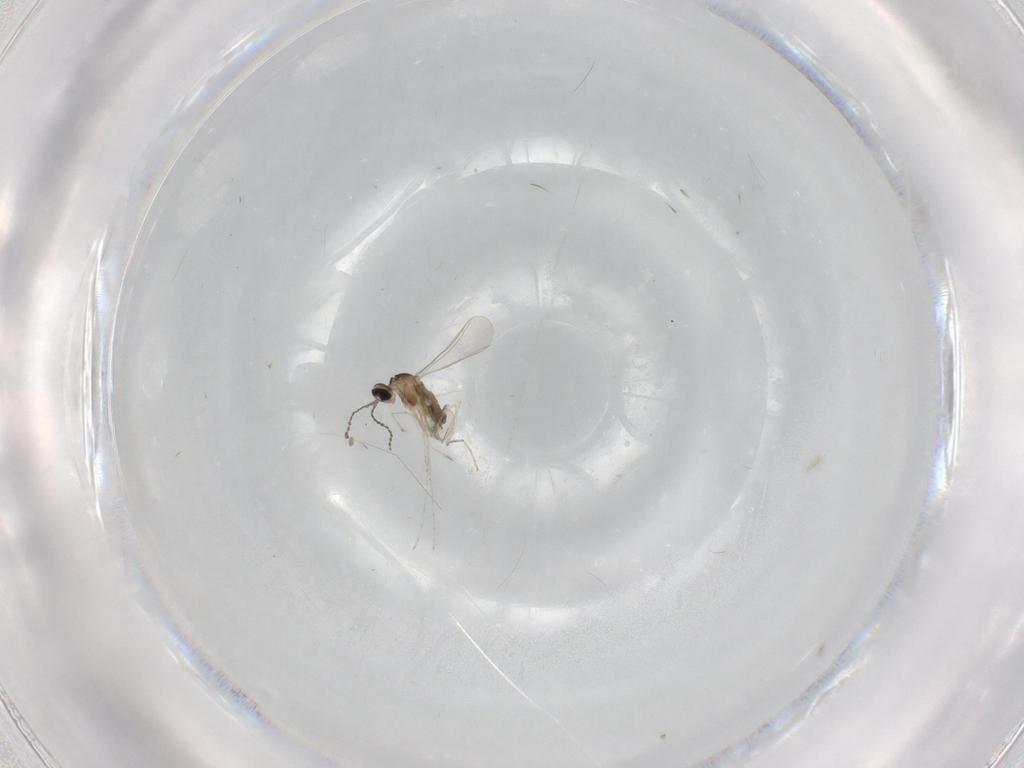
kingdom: Animalia
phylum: Arthropoda
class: Insecta
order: Diptera
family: Cecidomyiidae
